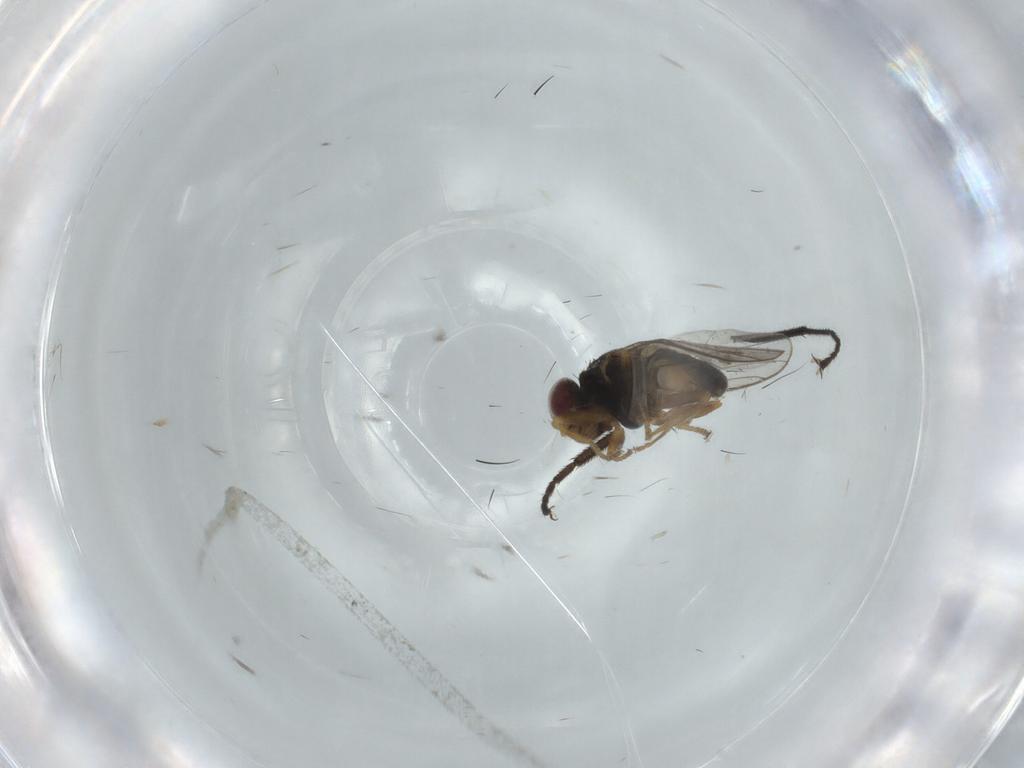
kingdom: Animalia
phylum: Arthropoda
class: Insecta
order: Diptera
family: Chloropidae
